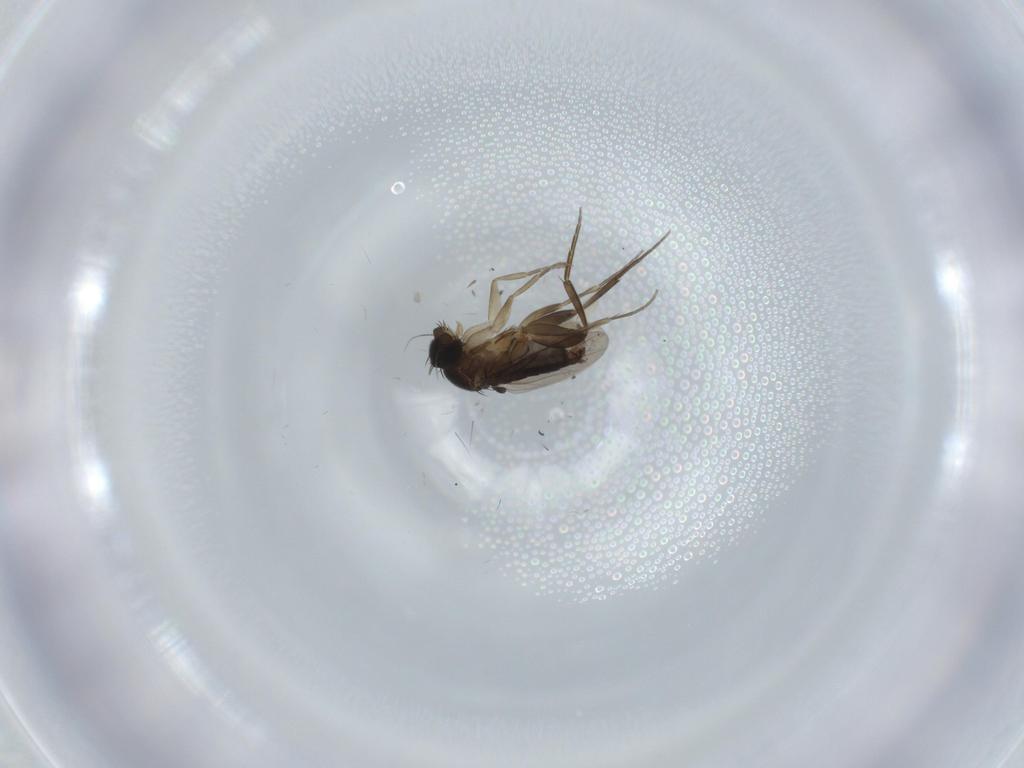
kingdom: Animalia
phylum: Arthropoda
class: Insecta
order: Diptera
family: Phoridae
